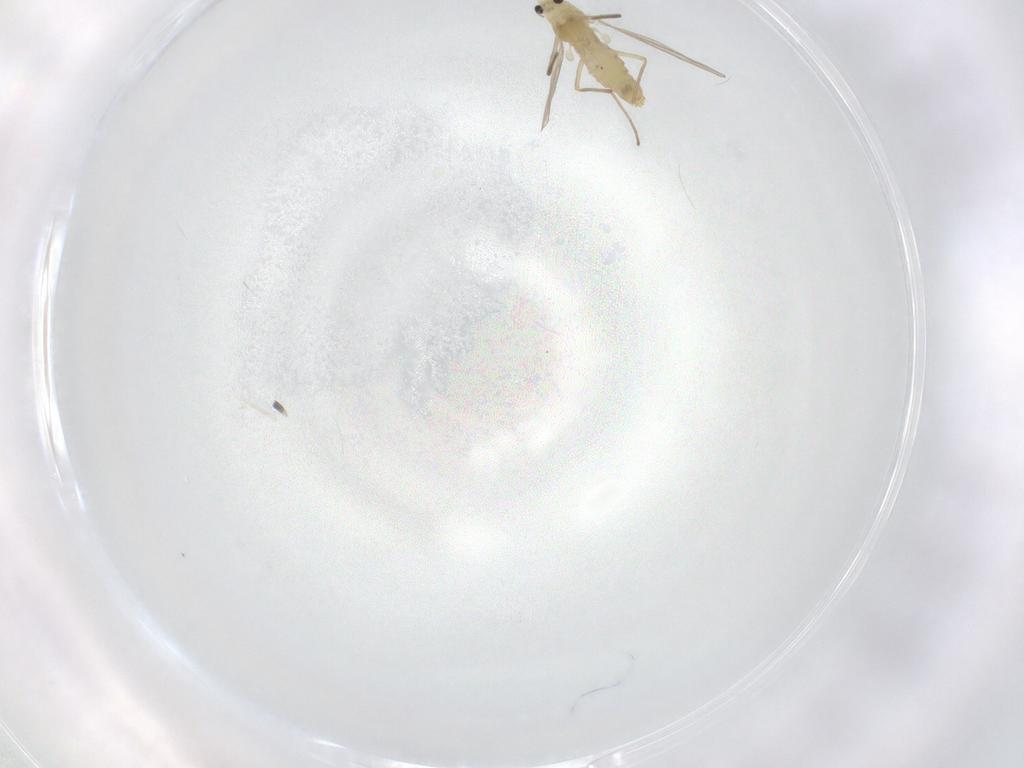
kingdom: Animalia
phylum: Arthropoda
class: Insecta
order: Diptera
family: Chironomidae
